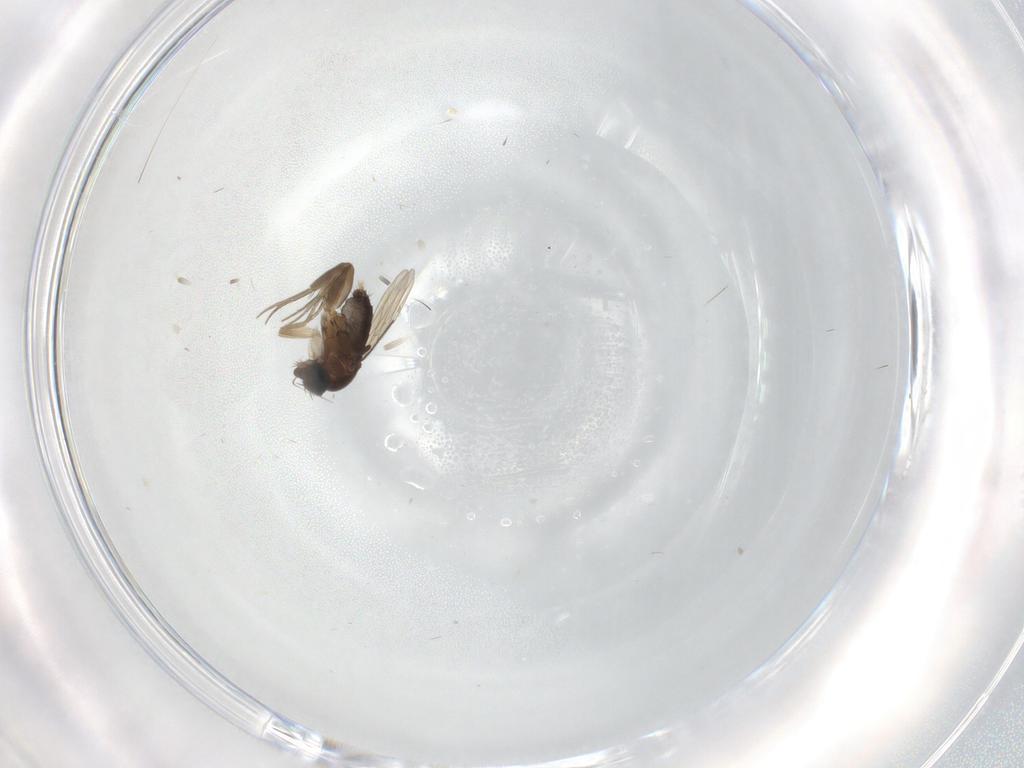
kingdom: Animalia
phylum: Arthropoda
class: Insecta
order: Diptera
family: Phoridae
